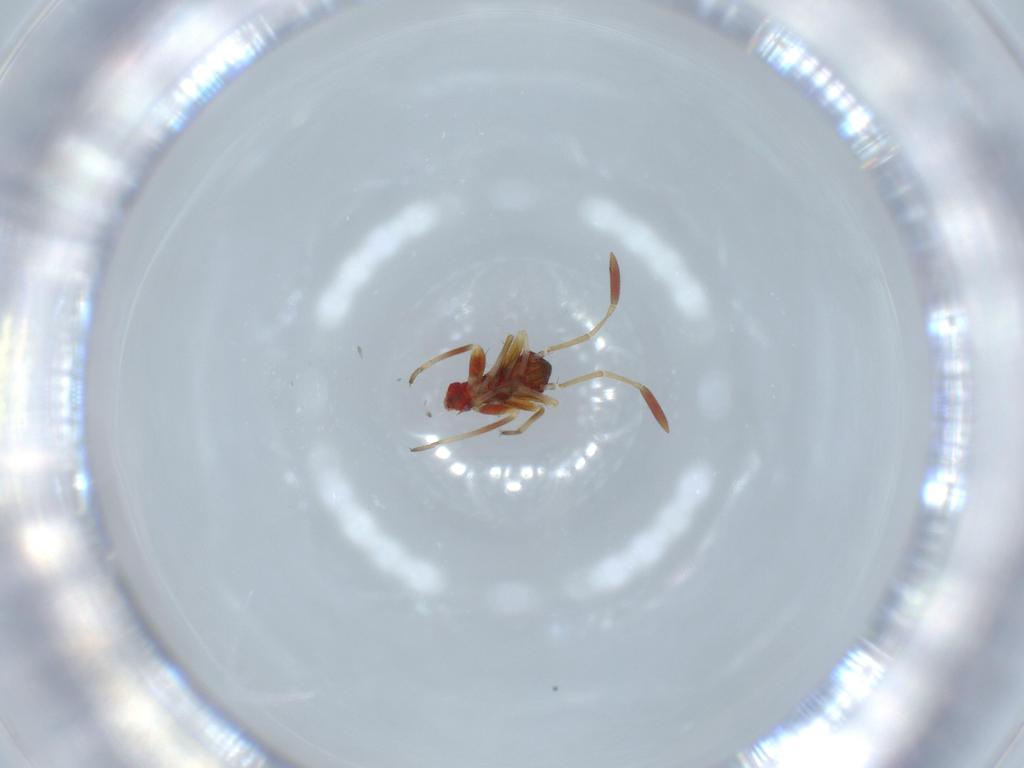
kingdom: Animalia
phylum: Arthropoda
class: Insecta
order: Hemiptera
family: Miridae
